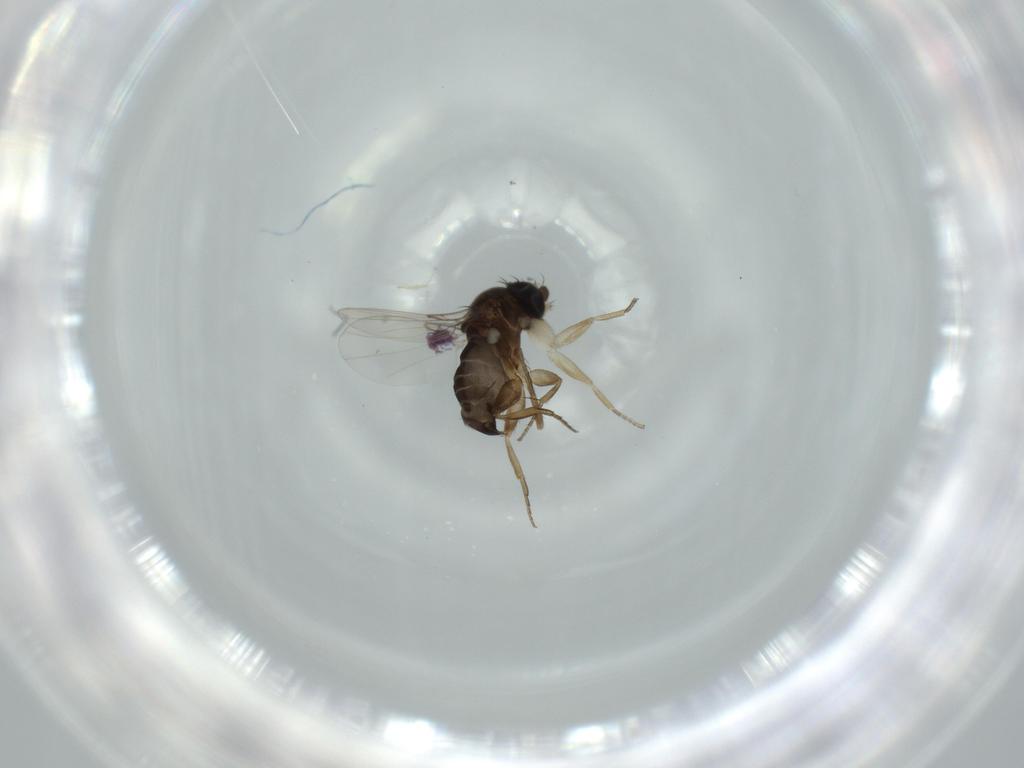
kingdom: Animalia
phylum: Arthropoda
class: Insecta
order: Diptera
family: Phoridae
